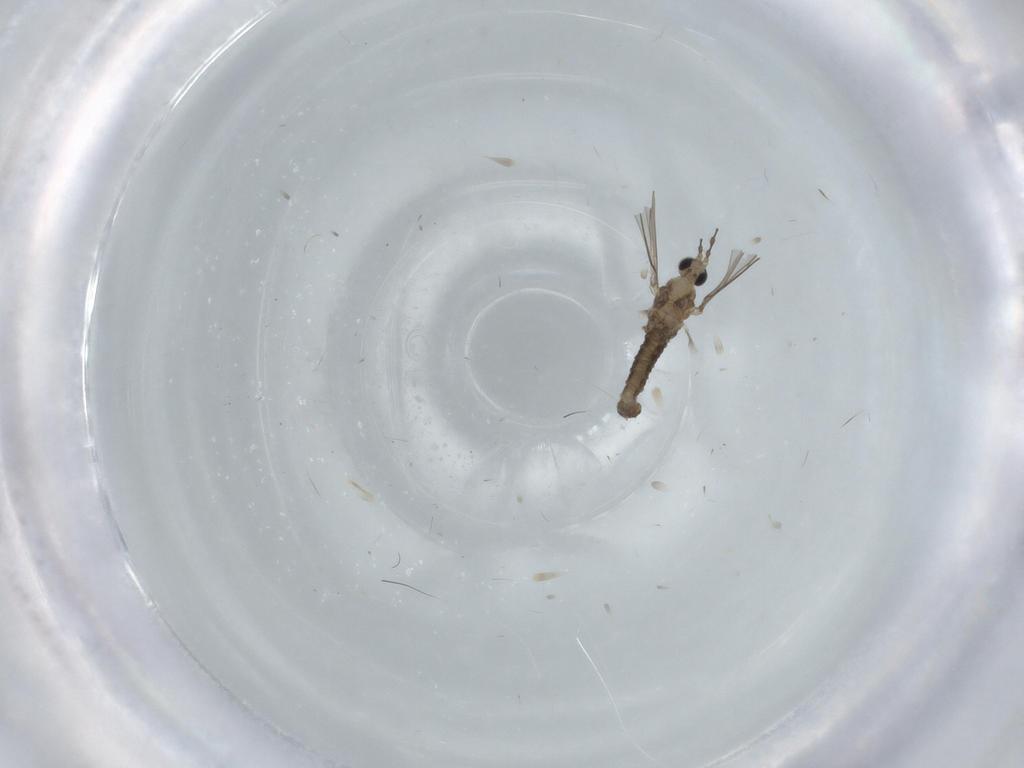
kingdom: Animalia
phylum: Arthropoda
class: Insecta
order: Diptera
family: Cecidomyiidae
